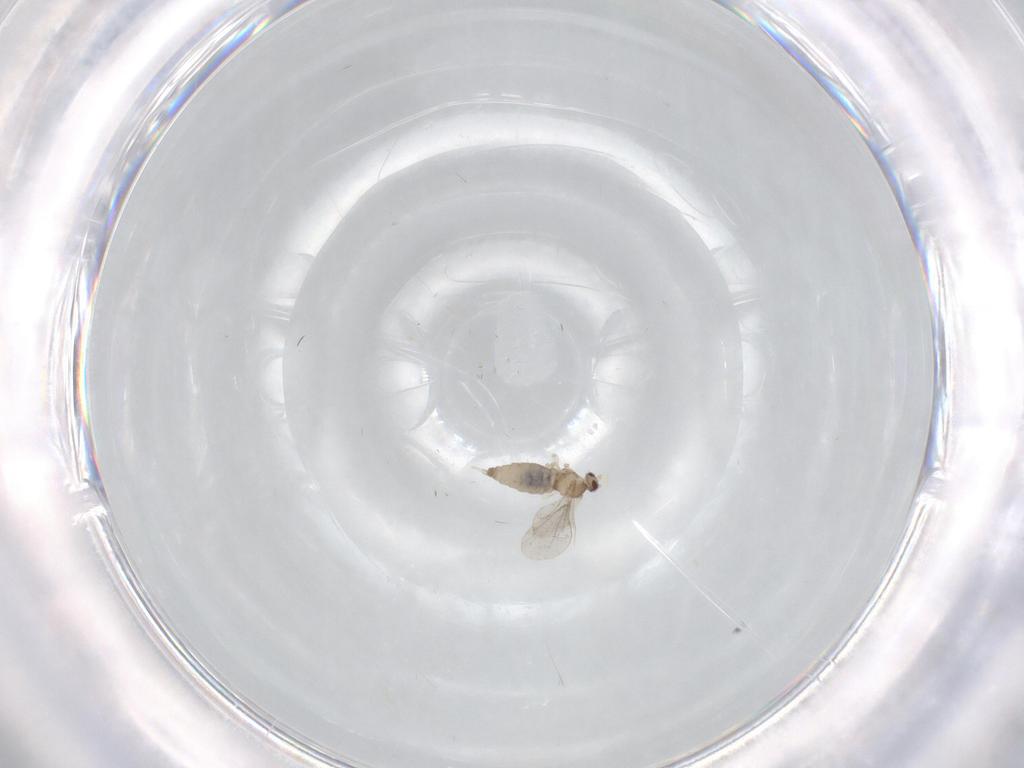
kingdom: Animalia
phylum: Arthropoda
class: Insecta
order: Diptera
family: Cecidomyiidae
